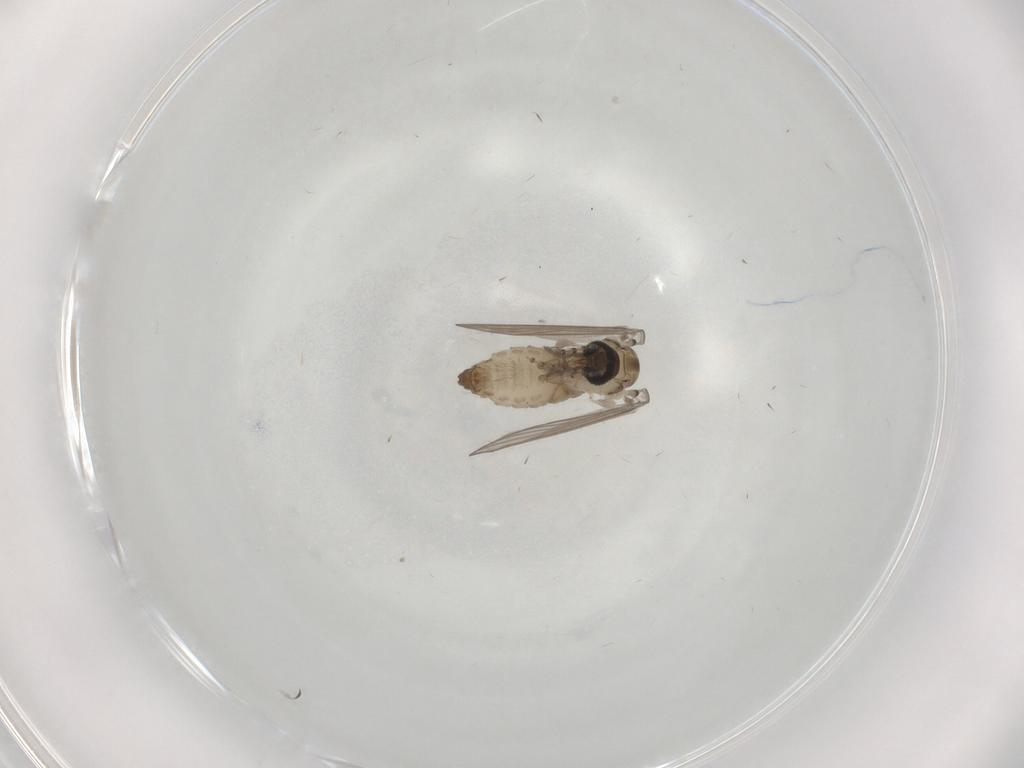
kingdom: Animalia
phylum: Arthropoda
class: Insecta
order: Diptera
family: Psychodidae
